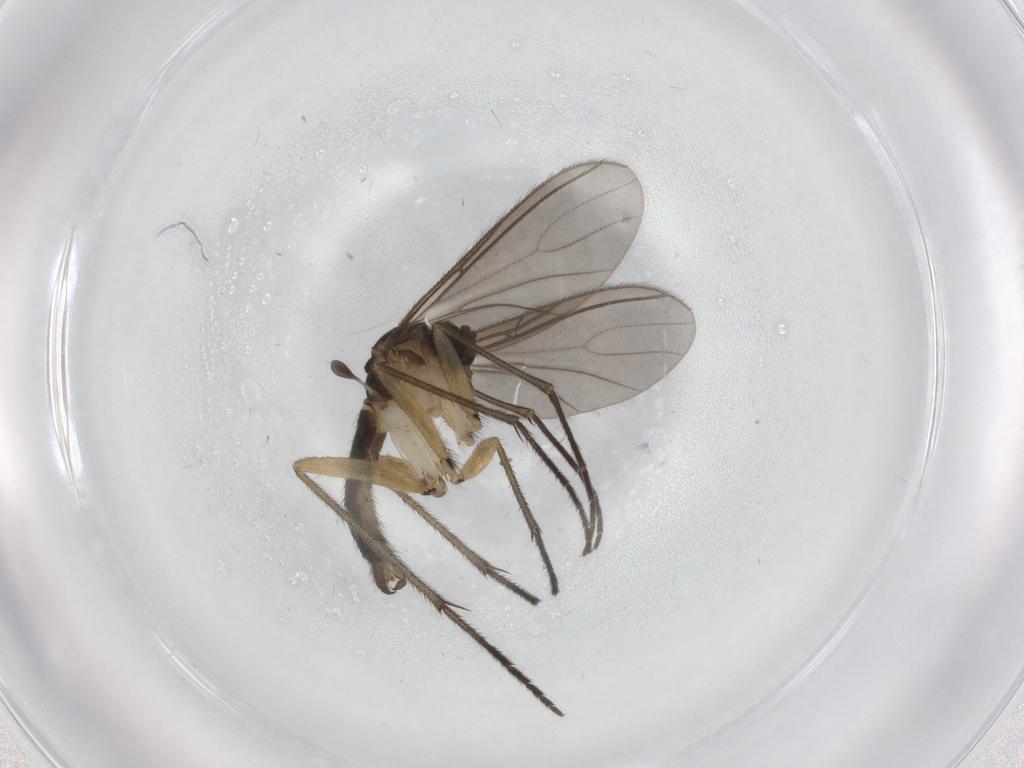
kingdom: Animalia
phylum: Arthropoda
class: Insecta
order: Diptera
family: Sciaridae
